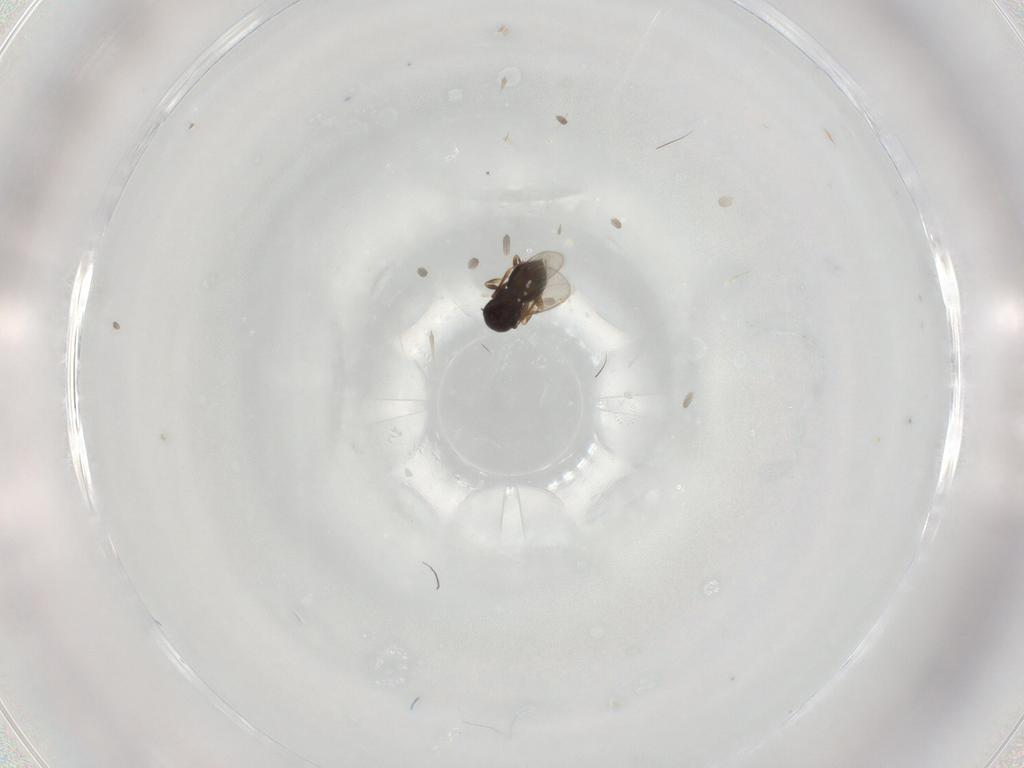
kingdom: Animalia
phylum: Arthropoda
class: Insecta
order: Hymenoptera
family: Scelionidae
